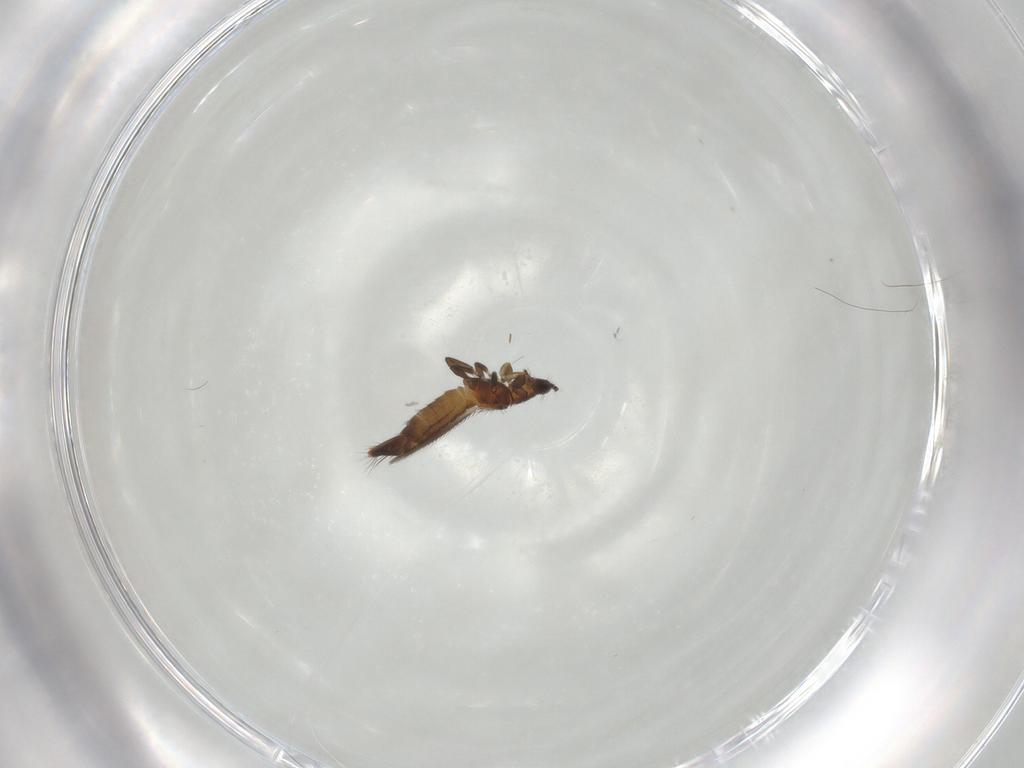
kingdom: Animalia
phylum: Arthropoda
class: Insecta
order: Thysanoptera
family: Thripidae
